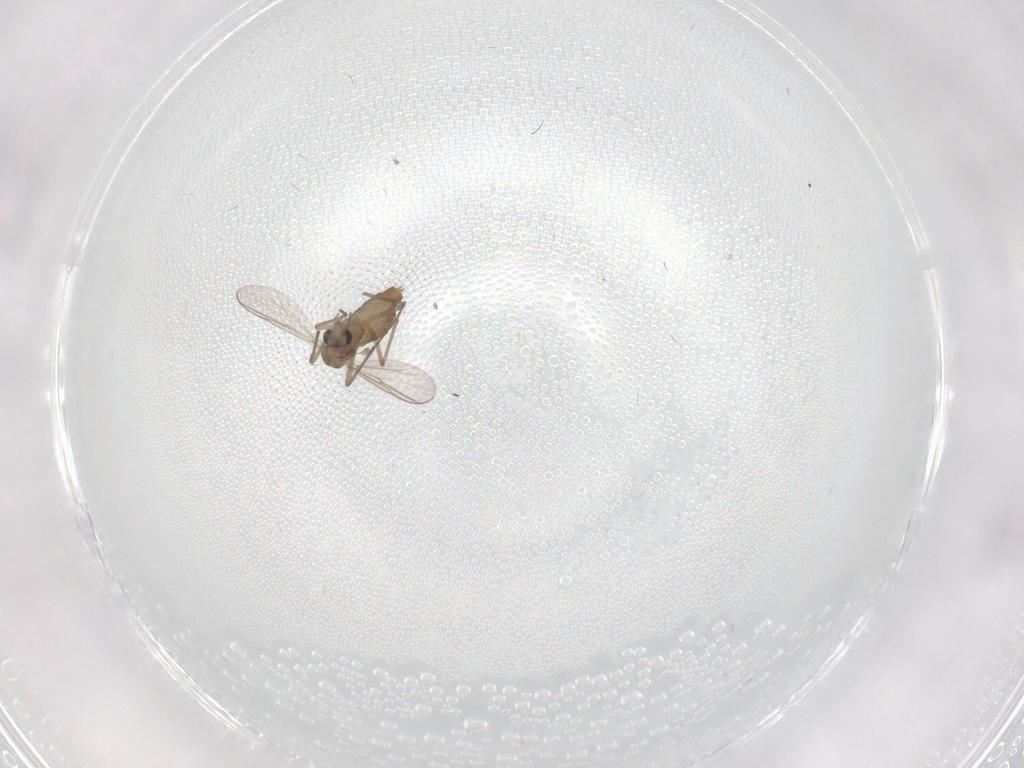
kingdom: Animalia
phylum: Arthropoda
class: Insecta
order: Diptera
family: Chironomidae
